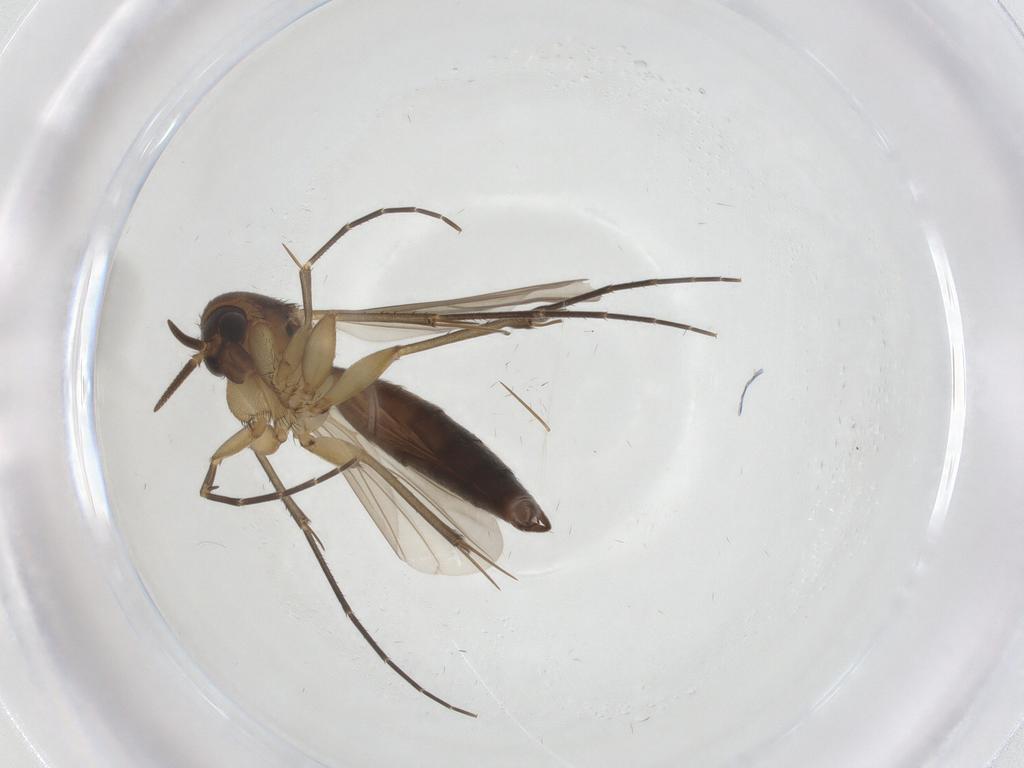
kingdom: Animalia
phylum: Arthropoda
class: Insecta
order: Diptera
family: Mycetophilidae
